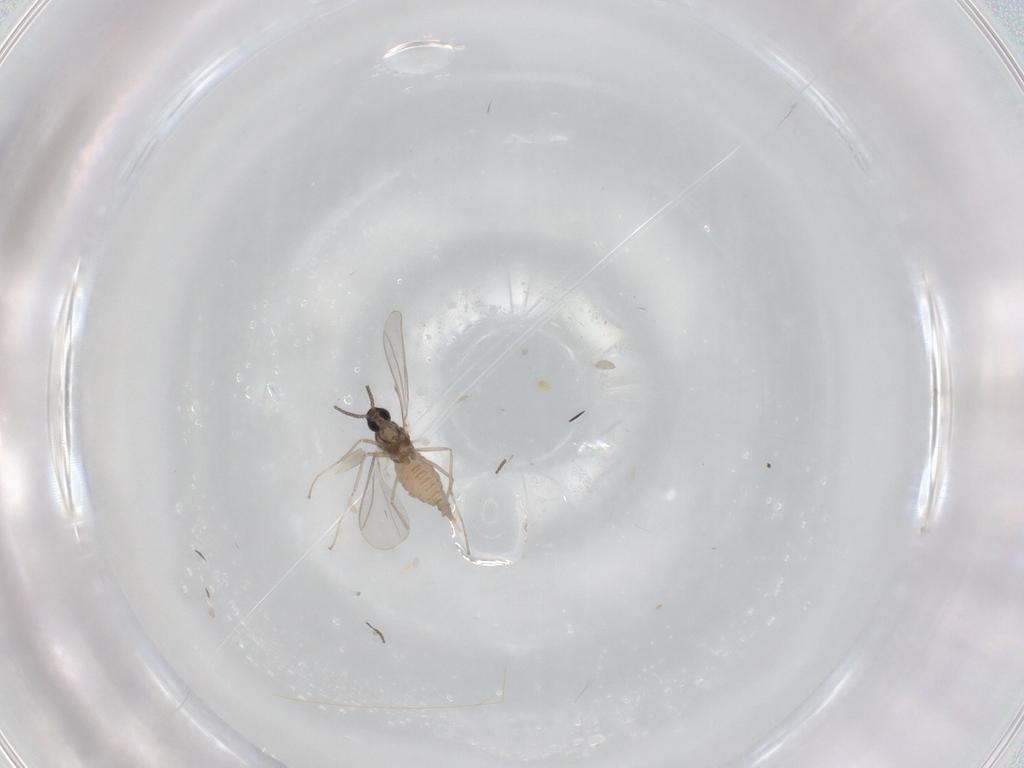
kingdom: Animalia
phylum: Arthropoda
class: Insecta
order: Diptera
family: Cecidomyiidae
